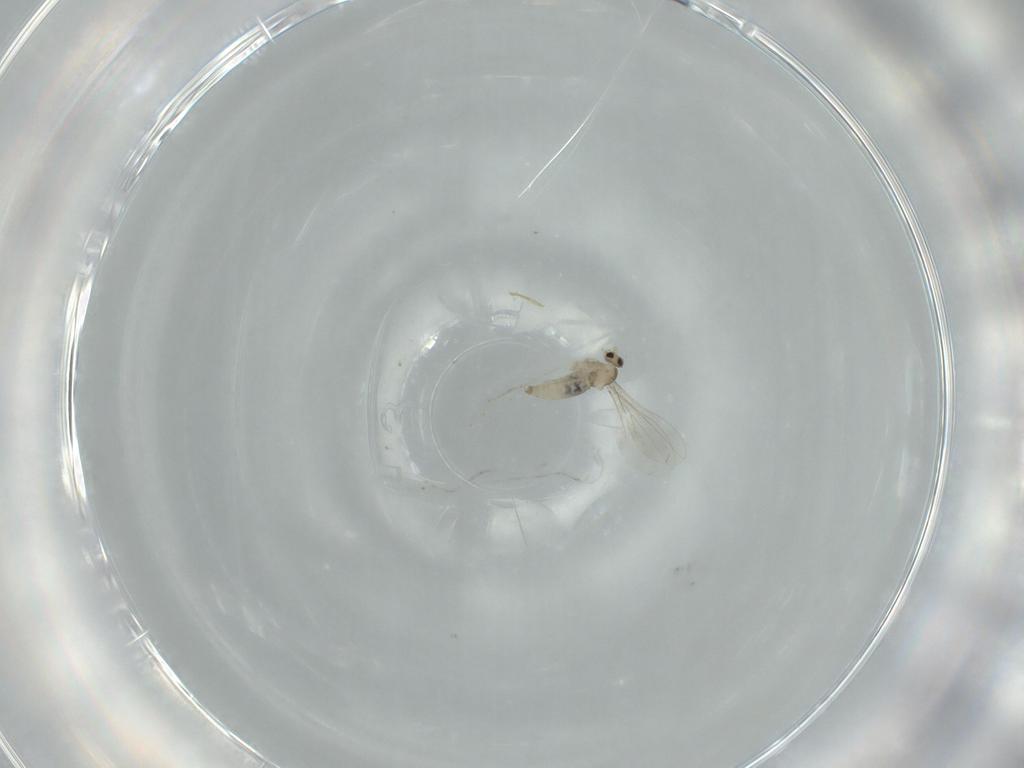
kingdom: Animalia
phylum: Arthropoda
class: Insecta
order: Diptera
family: Cecidomyiidae
